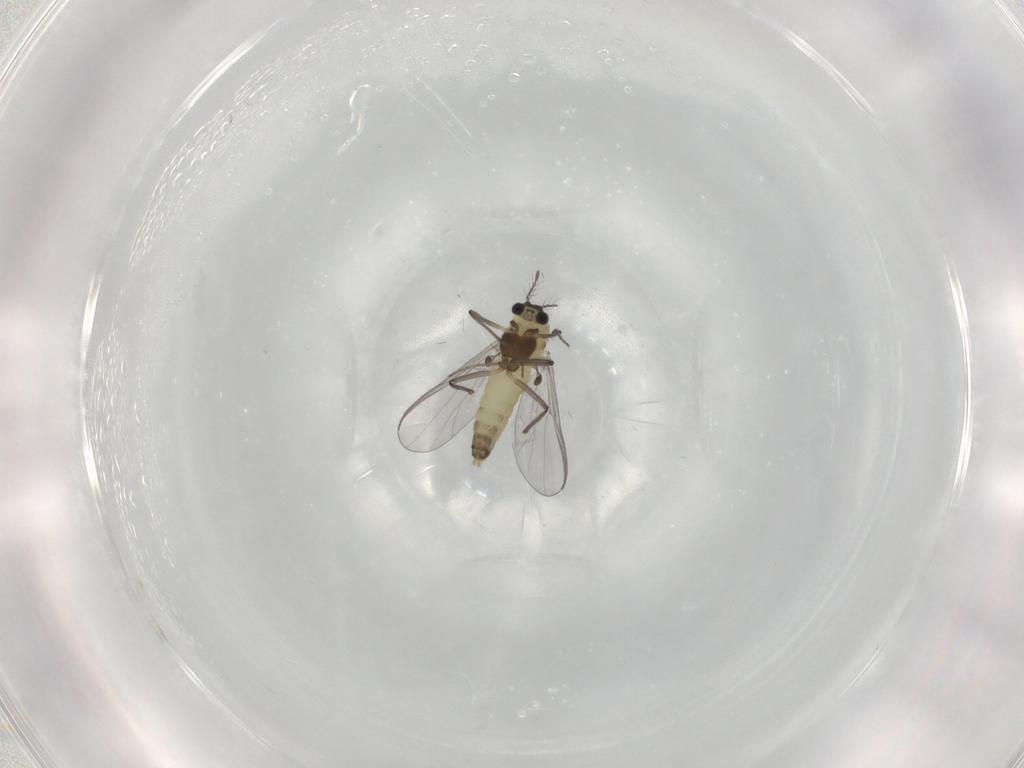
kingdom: Animalia
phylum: Arthropoda
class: Insecta
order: Diptera
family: Chironomidae
